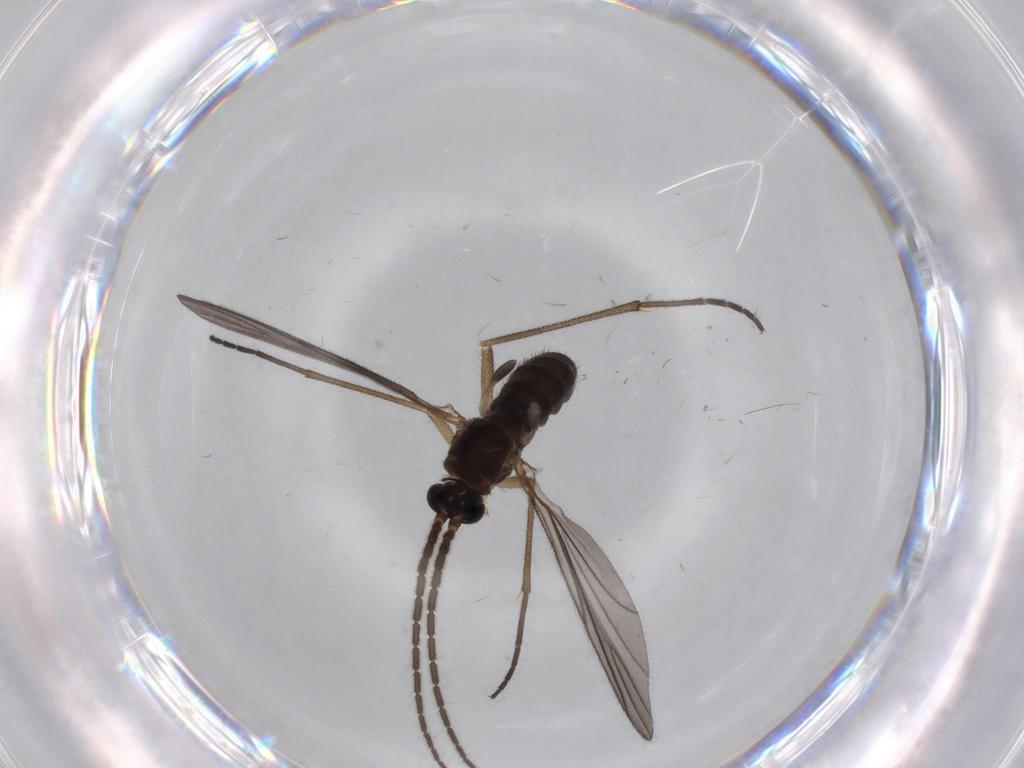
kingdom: Animalia
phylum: Arthropoda
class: Insecta
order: Diptera
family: Sciaridae
